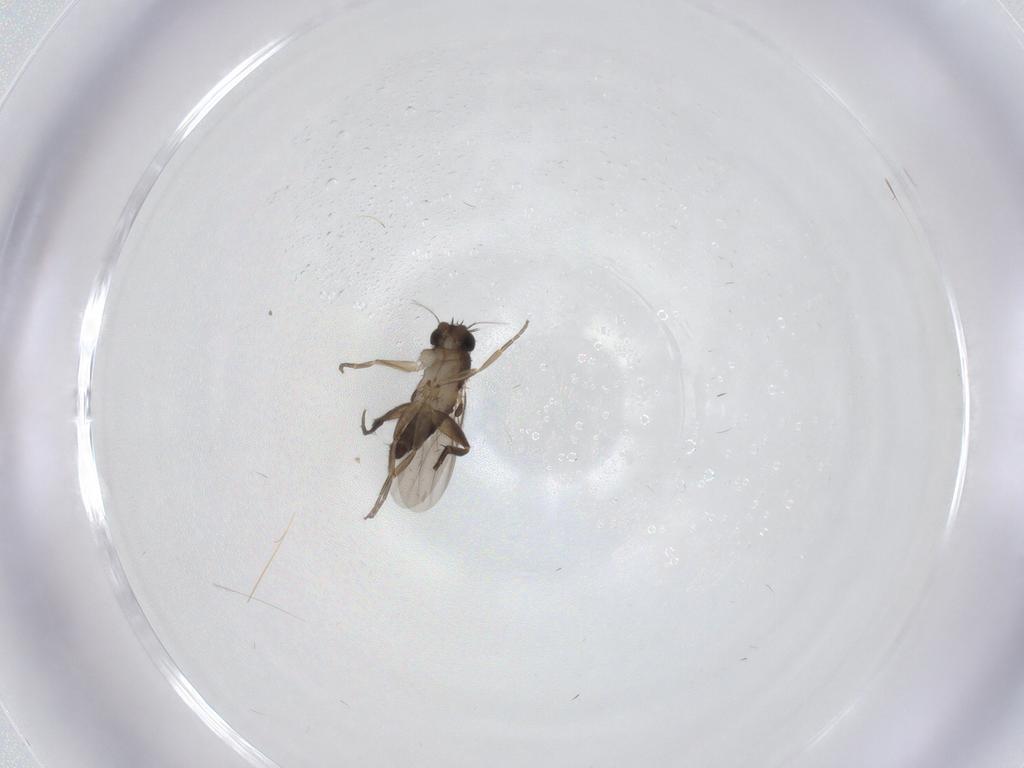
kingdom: Animalia
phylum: Arthropoda
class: Insecta
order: Diptera
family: Phoridae
